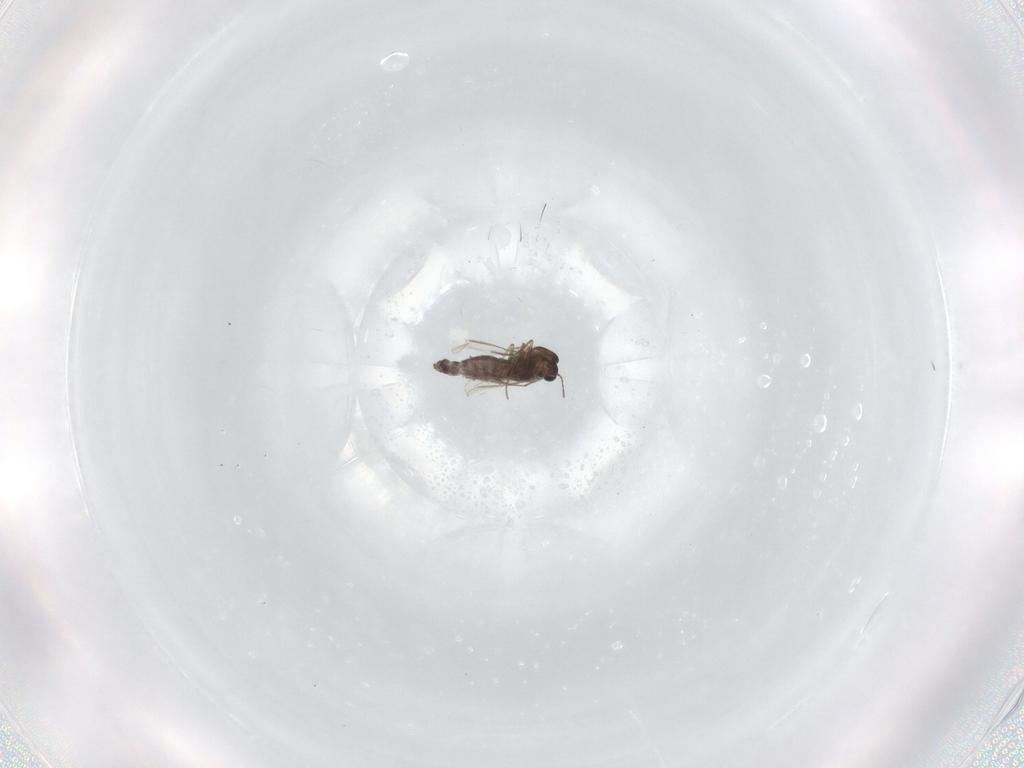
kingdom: Animalia
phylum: Arthropoda
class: Insecta
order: Diptera
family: Chironomidae
